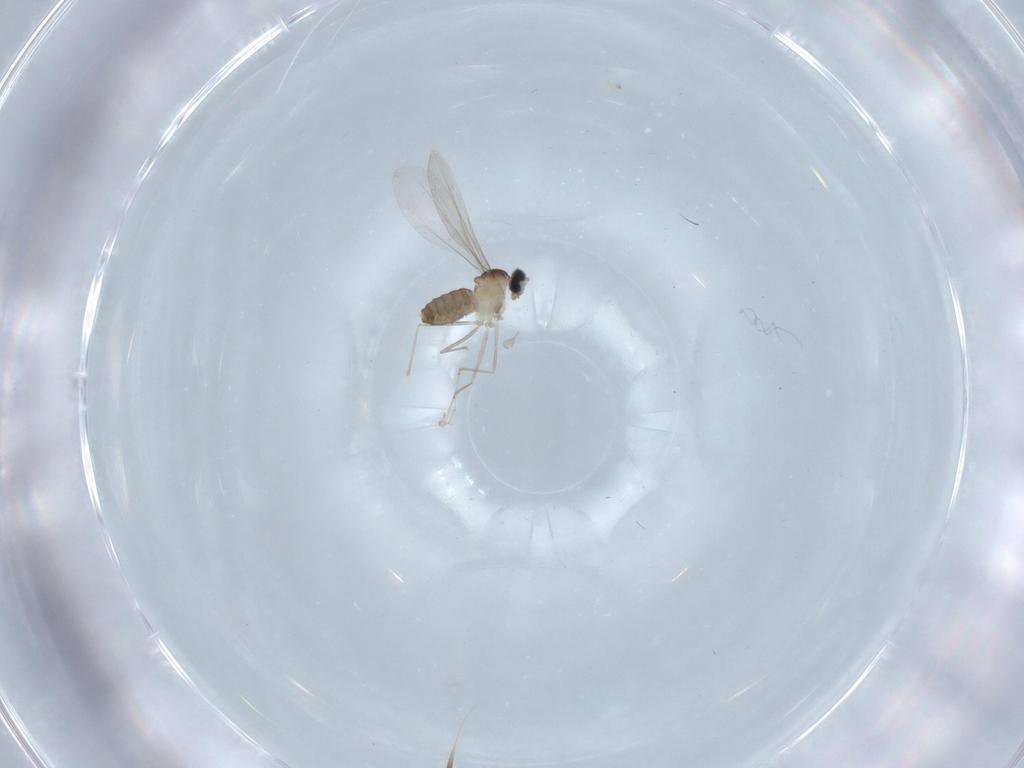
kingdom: Animalia
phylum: Arthropoda
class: Insecta
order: Diptera
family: Cecidomyiidae
